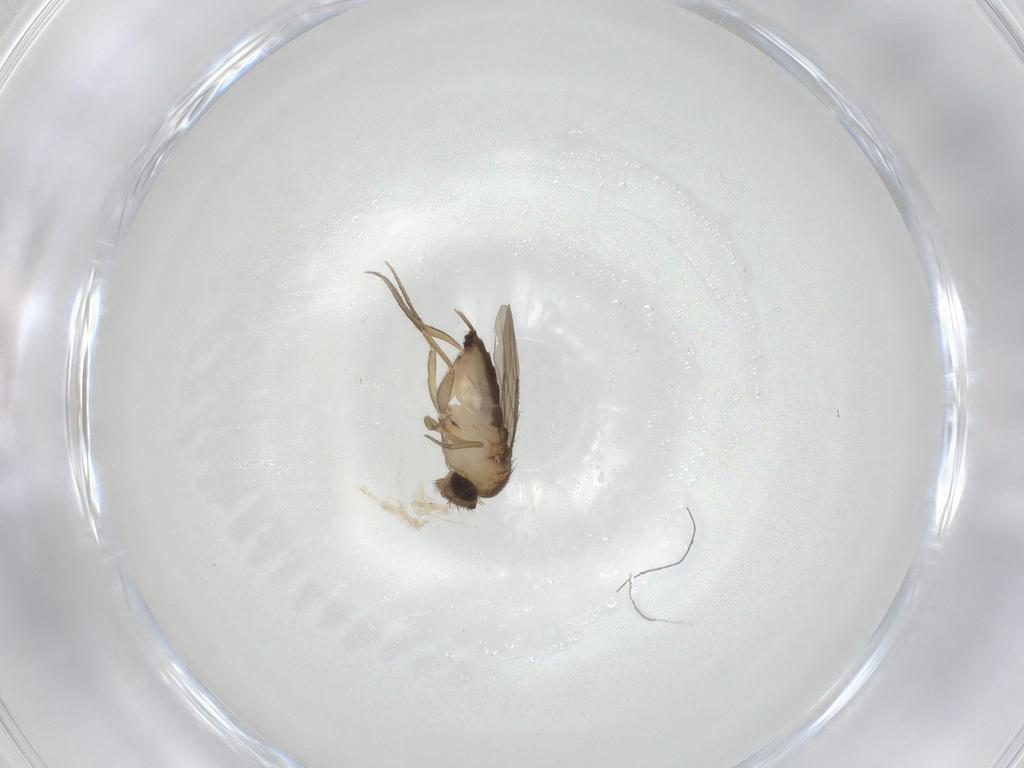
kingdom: Animalia
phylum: Arthropoda
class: Insecta
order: Diptera
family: Phoridae
